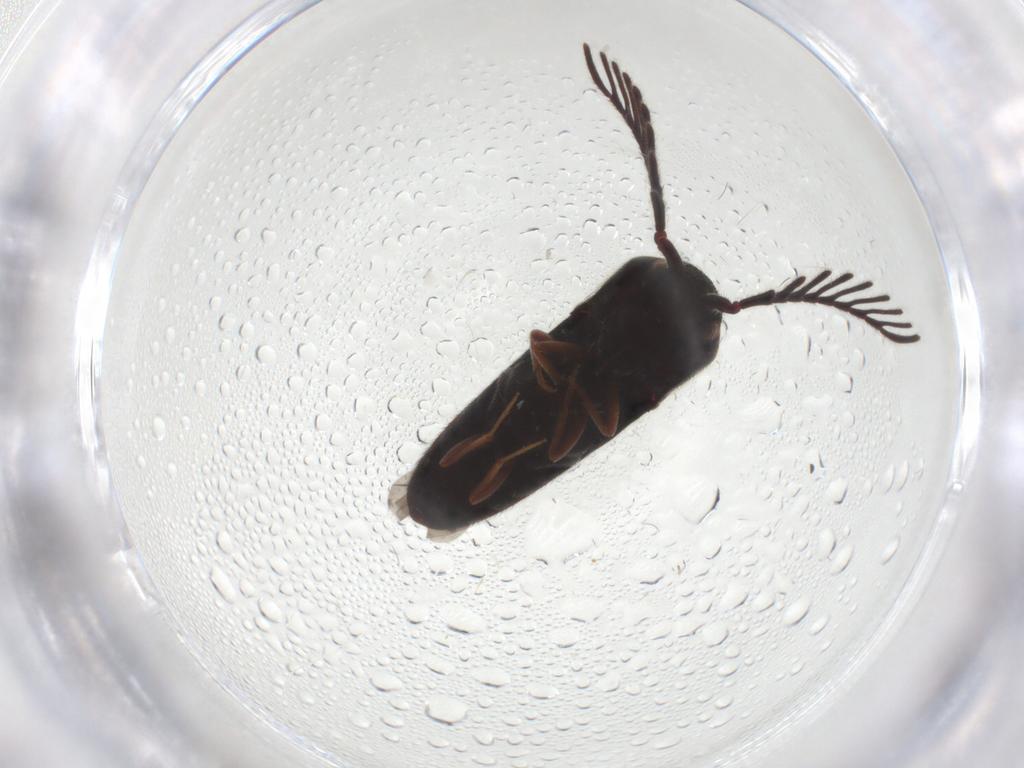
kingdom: Animalia
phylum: Arthropoda
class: Insecta
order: Coleoptera
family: Eucnemidae
